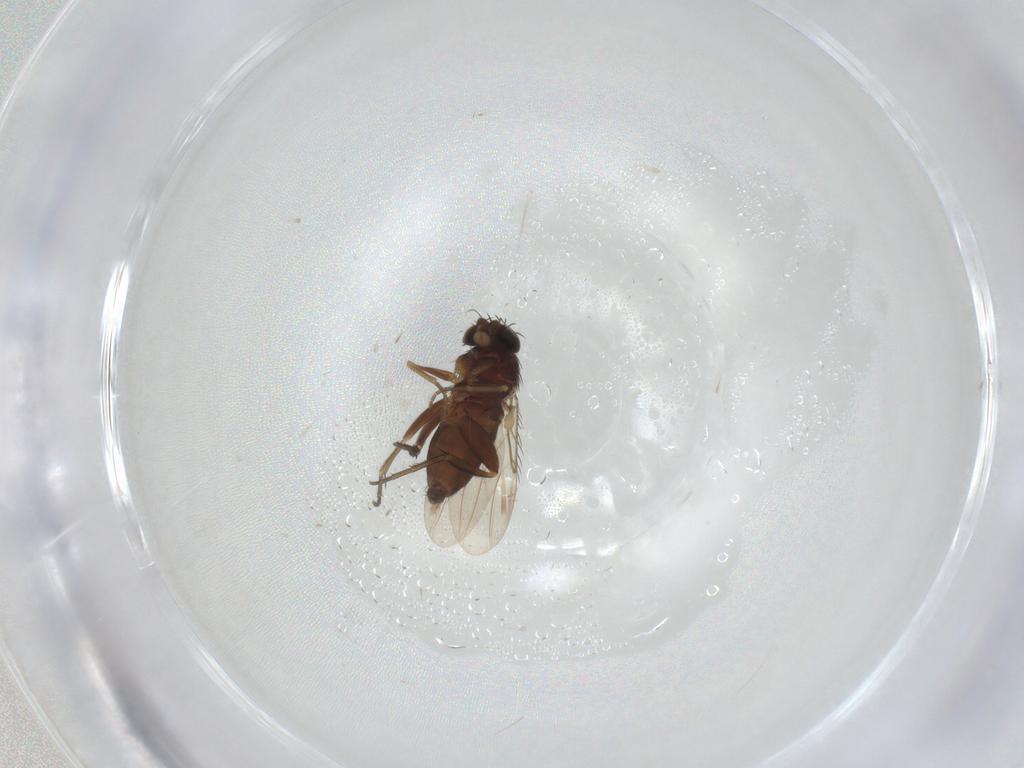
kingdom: Animalia
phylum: Arthropoda
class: Insecta
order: Diptera
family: Phoridae
